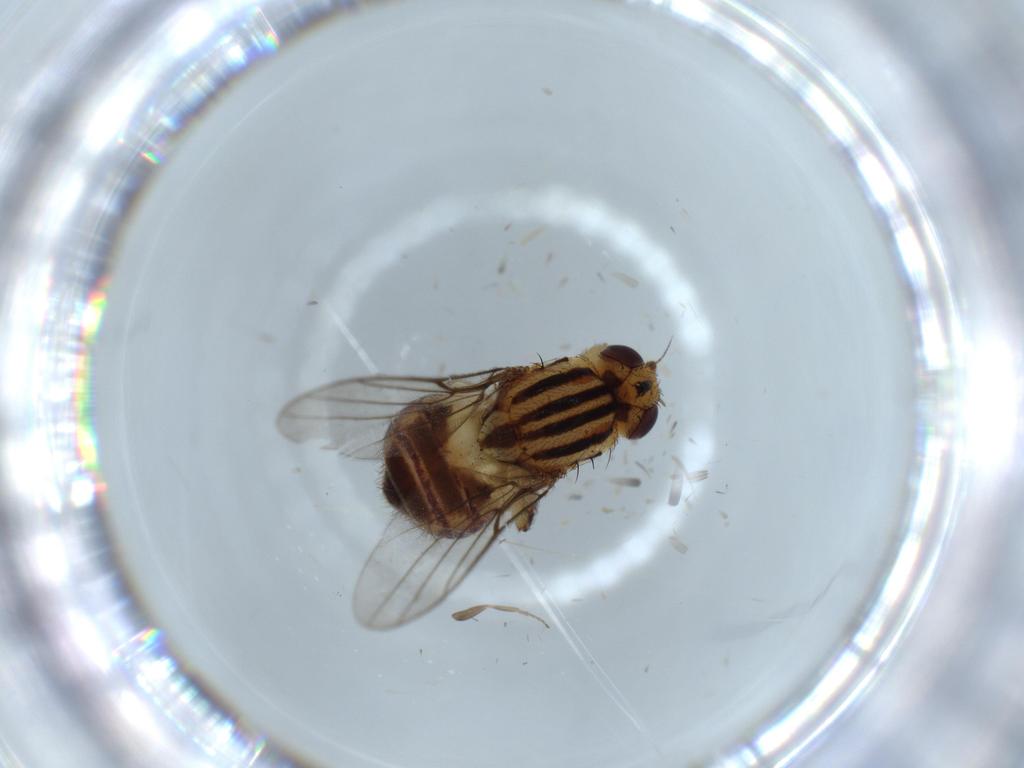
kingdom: Animalia
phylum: Arthropoda
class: Insecta
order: Diptera
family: Chloropidae
